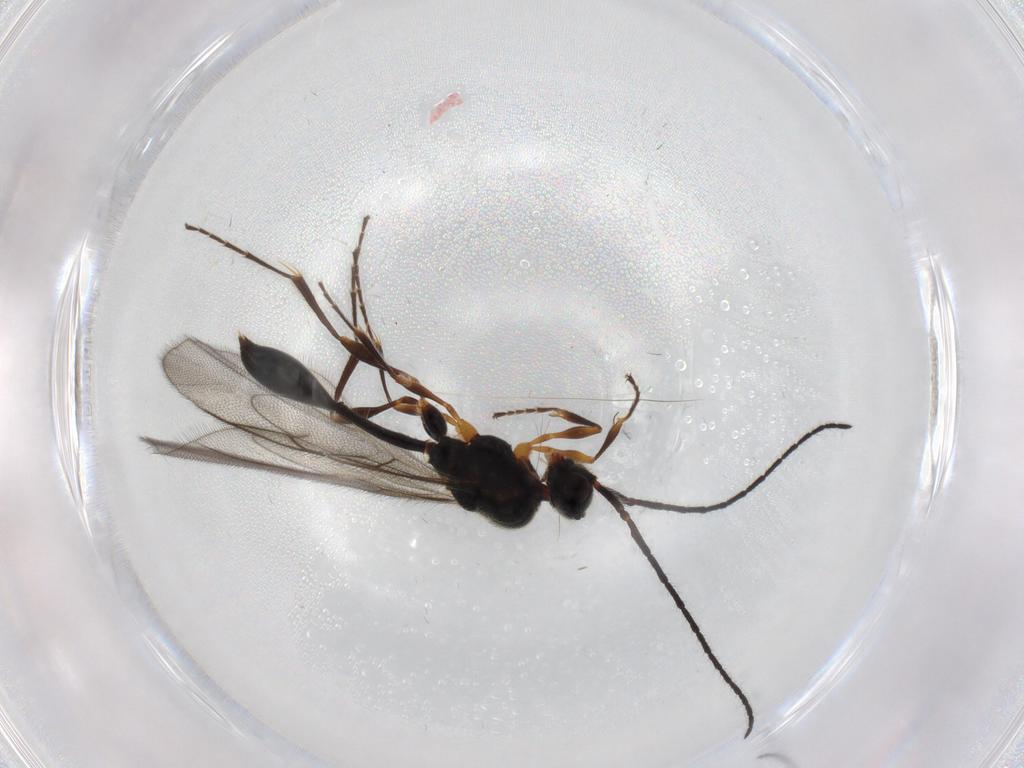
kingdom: Animalia
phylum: Arthropoda
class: Insecta
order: Hymenoptera
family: Diapriidae
